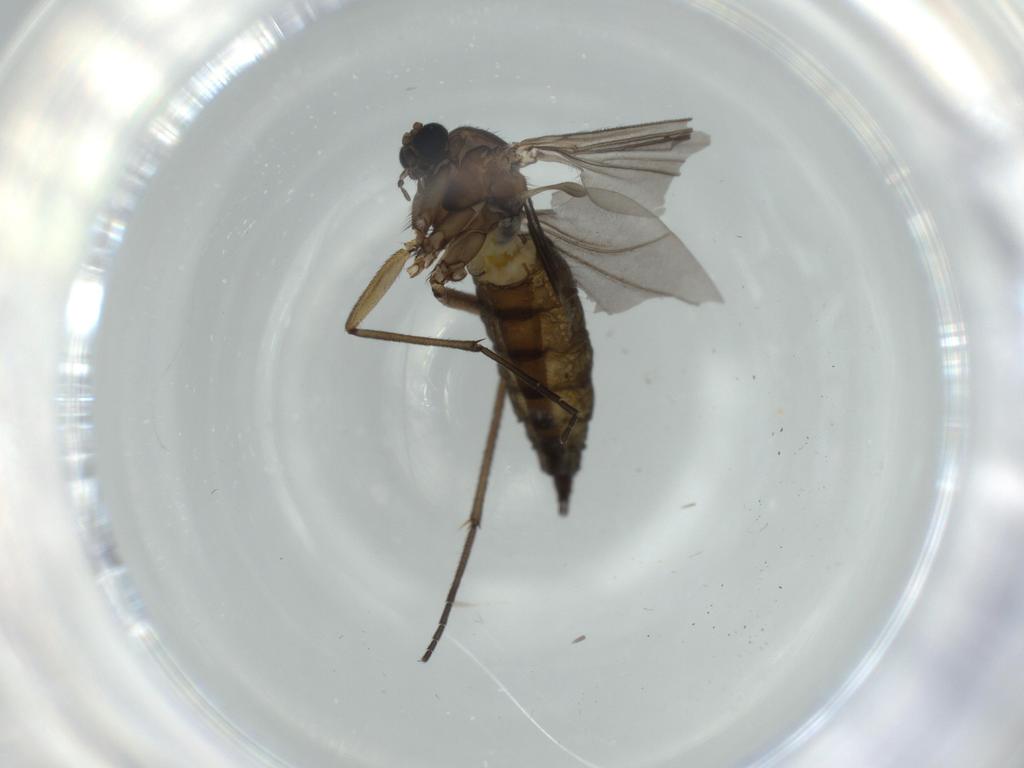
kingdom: Animalia
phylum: Arthropoda
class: Insecta
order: Diptera
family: Sciaridae
